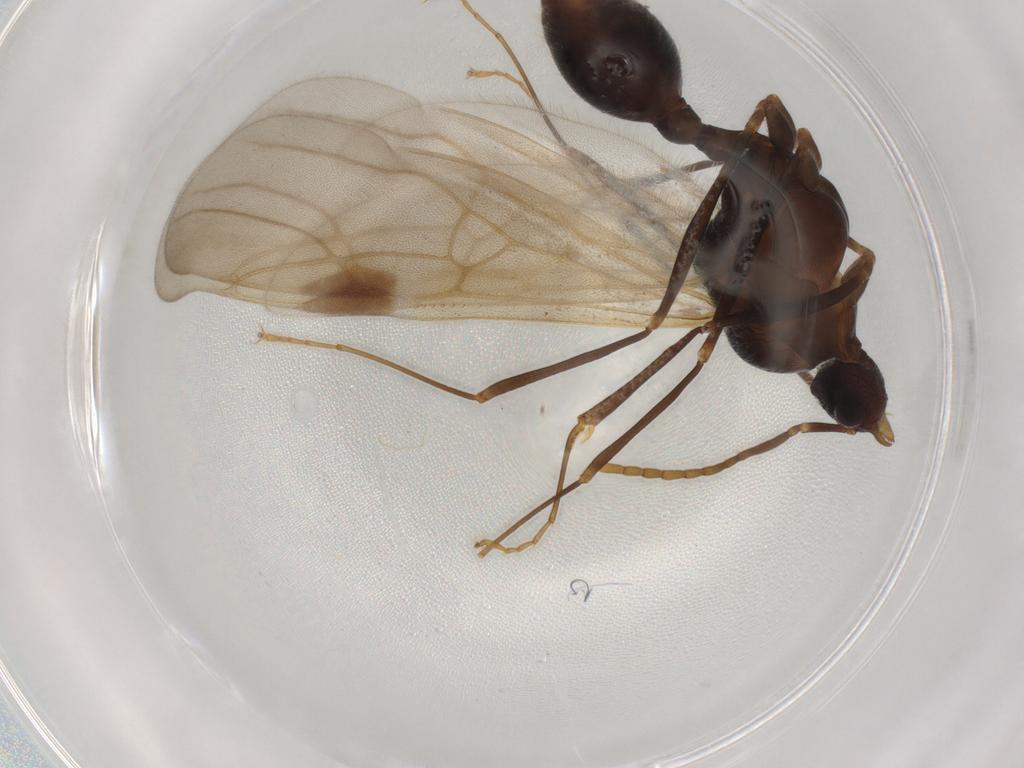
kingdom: Animalia
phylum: Arthropoda
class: Insecta
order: Hymenoptera
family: Formicidae
